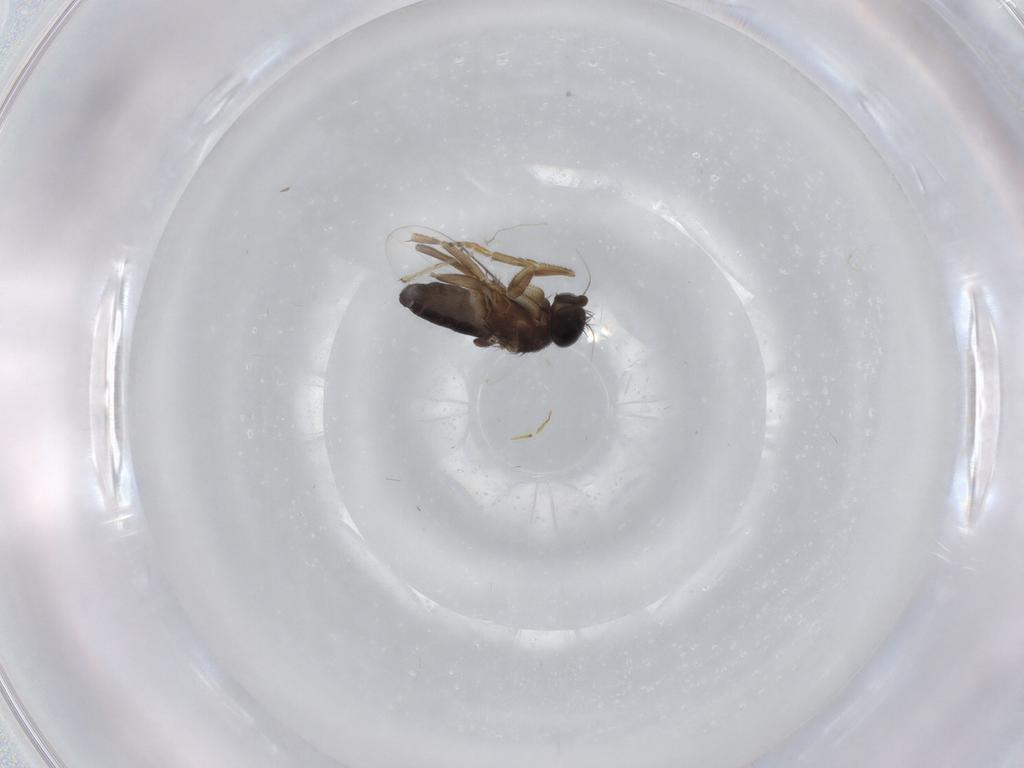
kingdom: Animalia
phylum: Arthropoda
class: Insecta
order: Diptera
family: Phoridae
